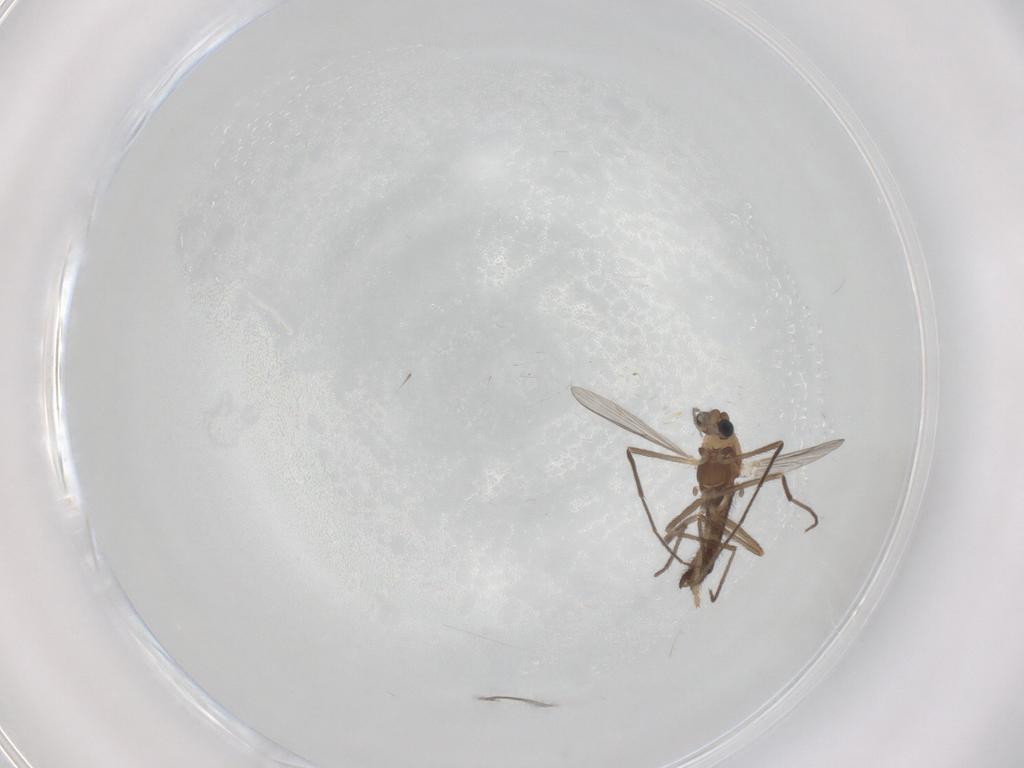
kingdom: Animalia
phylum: Arthropoda
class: Insecta
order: Diptera
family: Chironomidae
